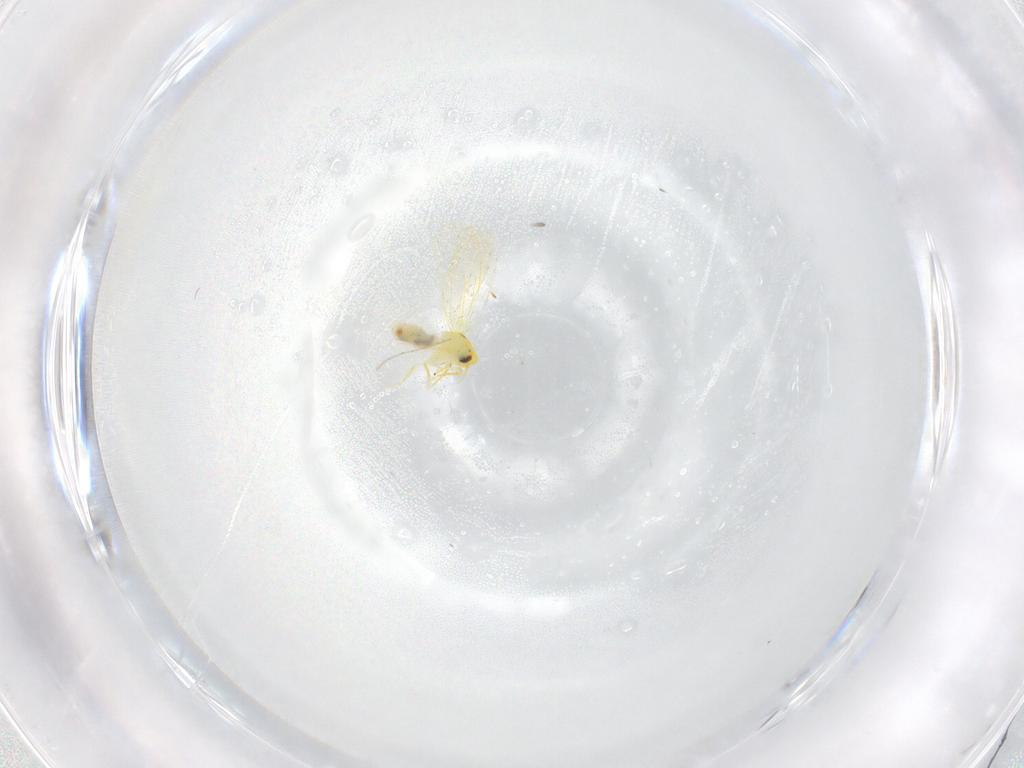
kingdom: Animalia
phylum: Arthropoda
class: Insecta
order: Hemiptera
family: Aleyrodidae
